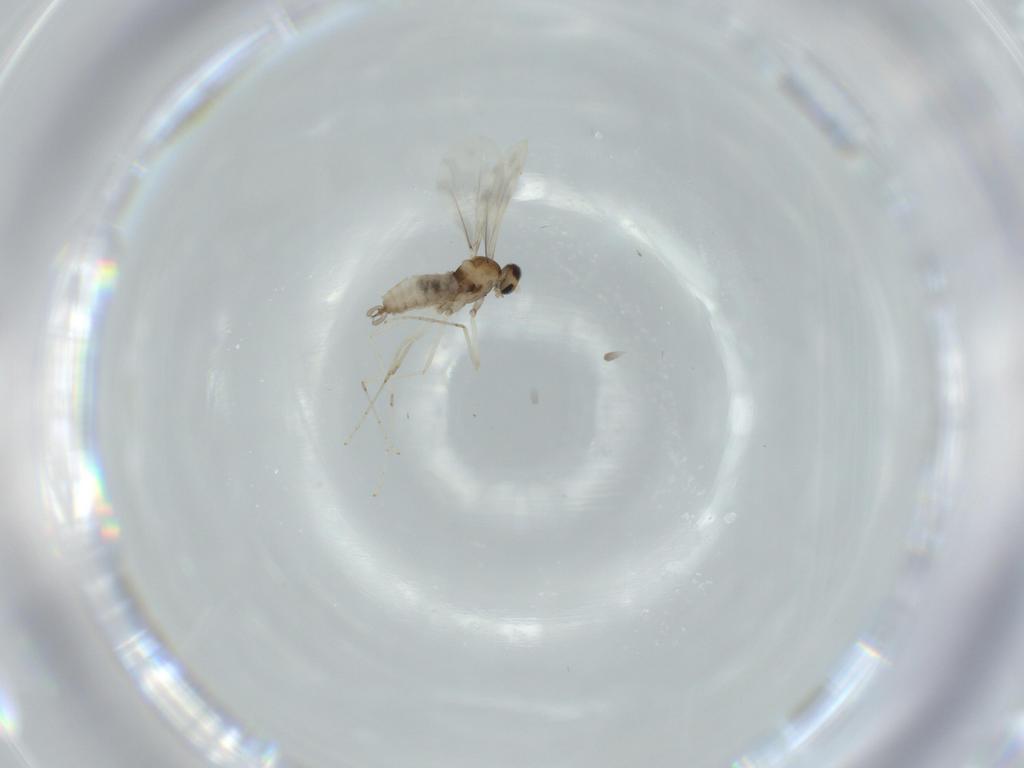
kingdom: Animalia
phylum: Arthropoda
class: Insecta
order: Diptera
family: Cecidomyiidae
